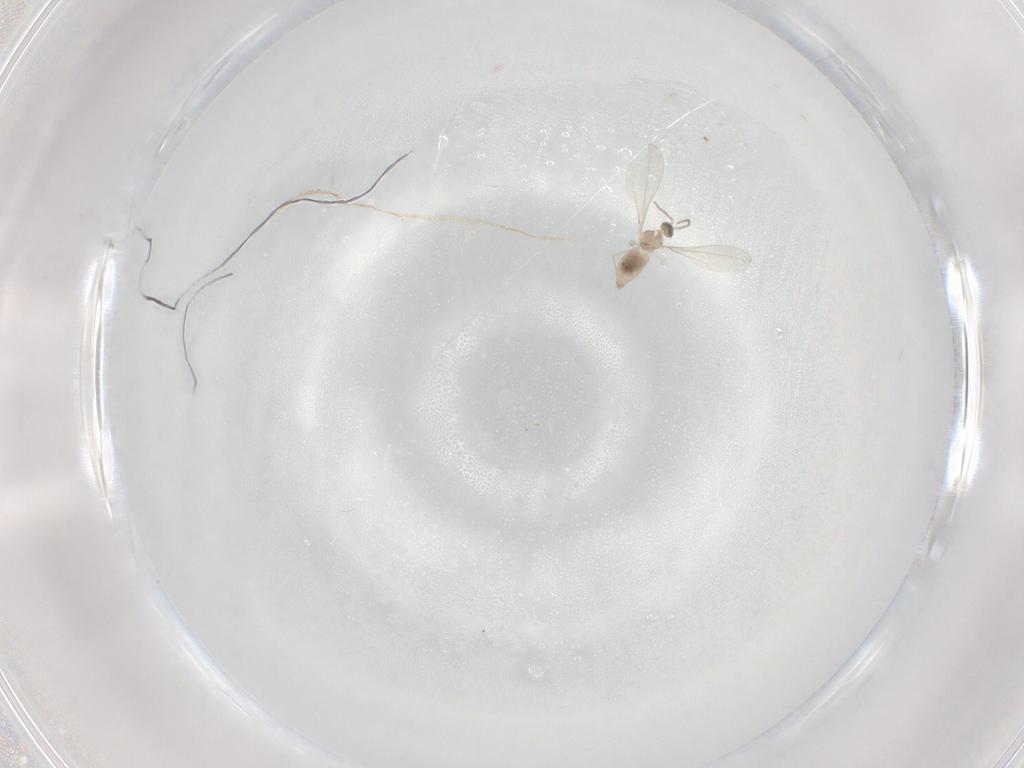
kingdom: Animalia
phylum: Arthropoda
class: Insecta
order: Diptera
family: Cecidomyiidae
